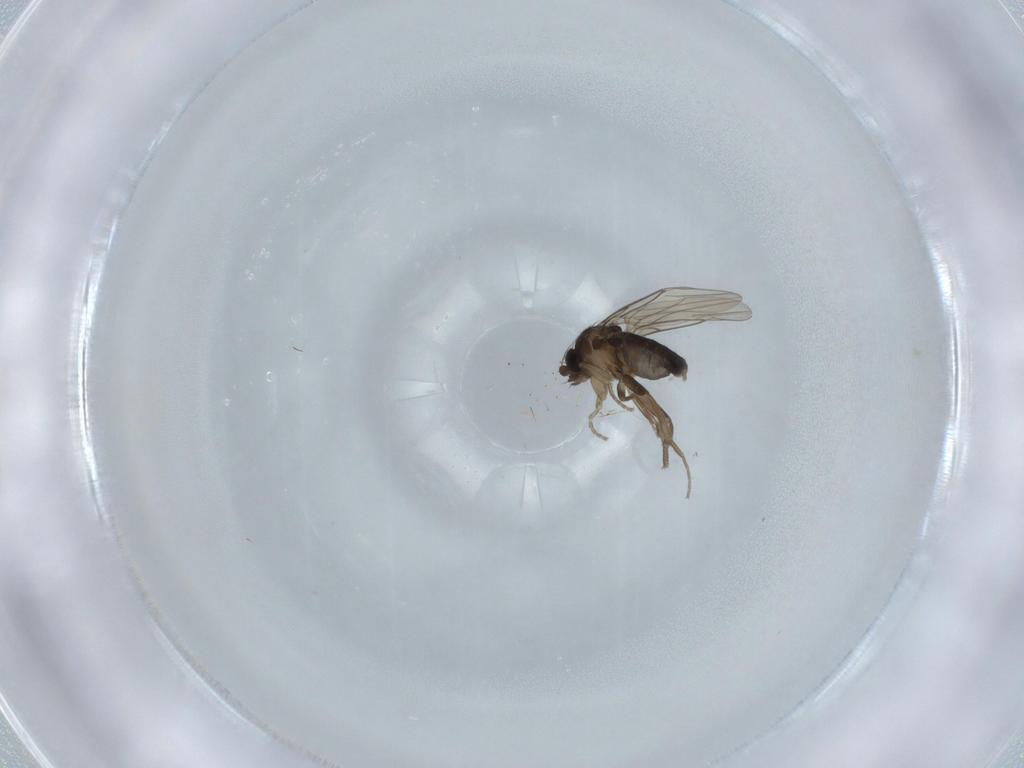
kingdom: Animalia
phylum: Arthropoda
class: Insecta
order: Diptera
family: Phoridae
